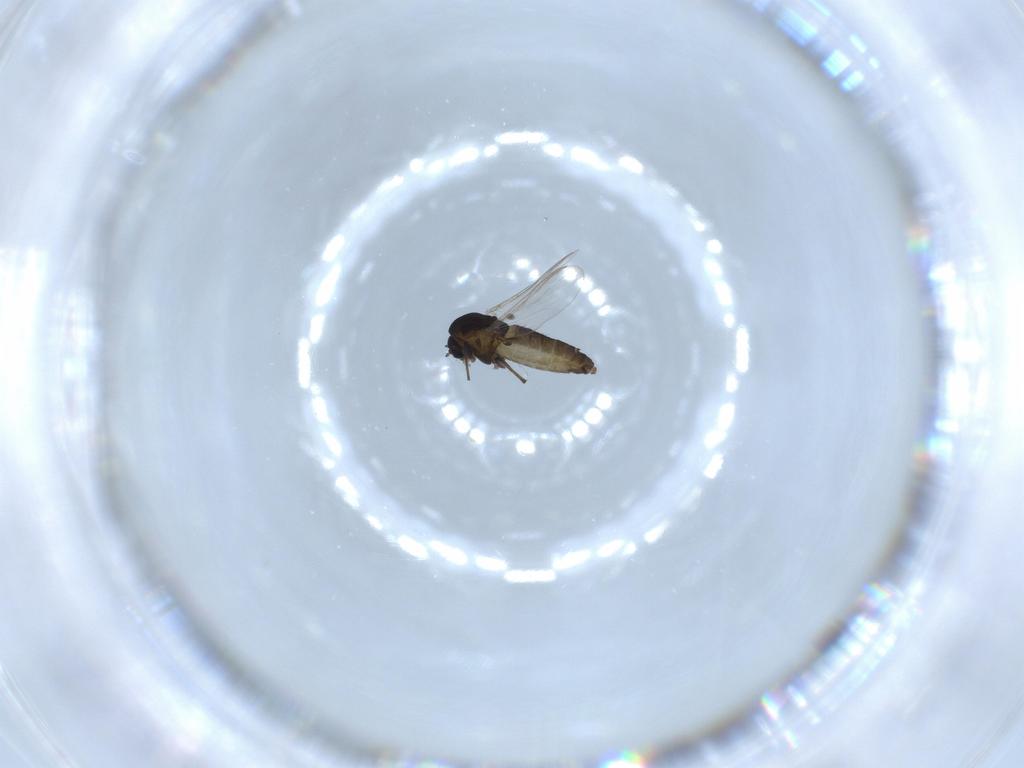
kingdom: Animalia
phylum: Arthropoda
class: Insecta
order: Diptera
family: Chironomidae
